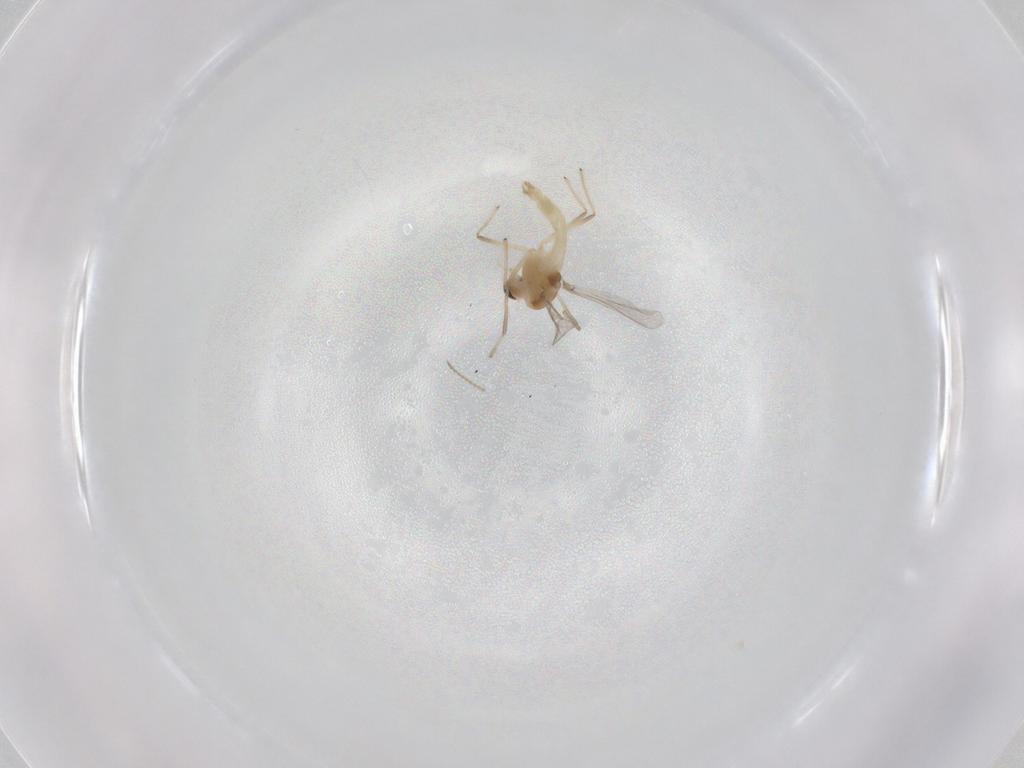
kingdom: Animalia
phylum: Arthropoda
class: Insecta
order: Diptera
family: Chironomidae
